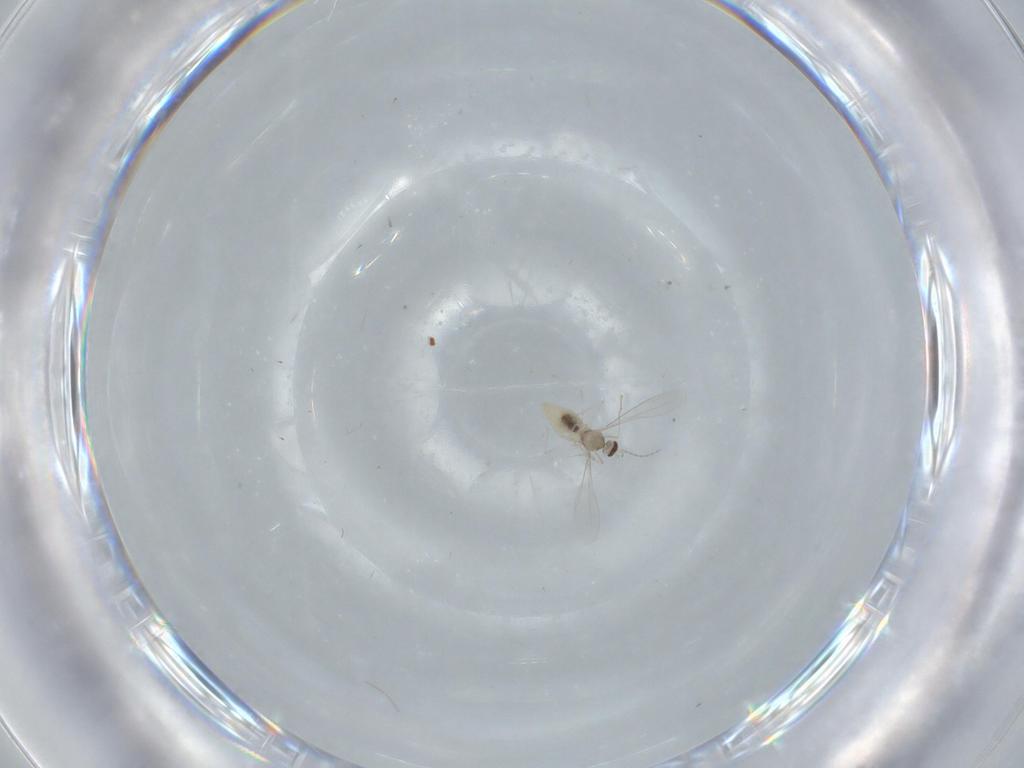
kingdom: Animalia
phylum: Arthropoda
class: Insecta
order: Diptera
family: Cecidomyiidae
